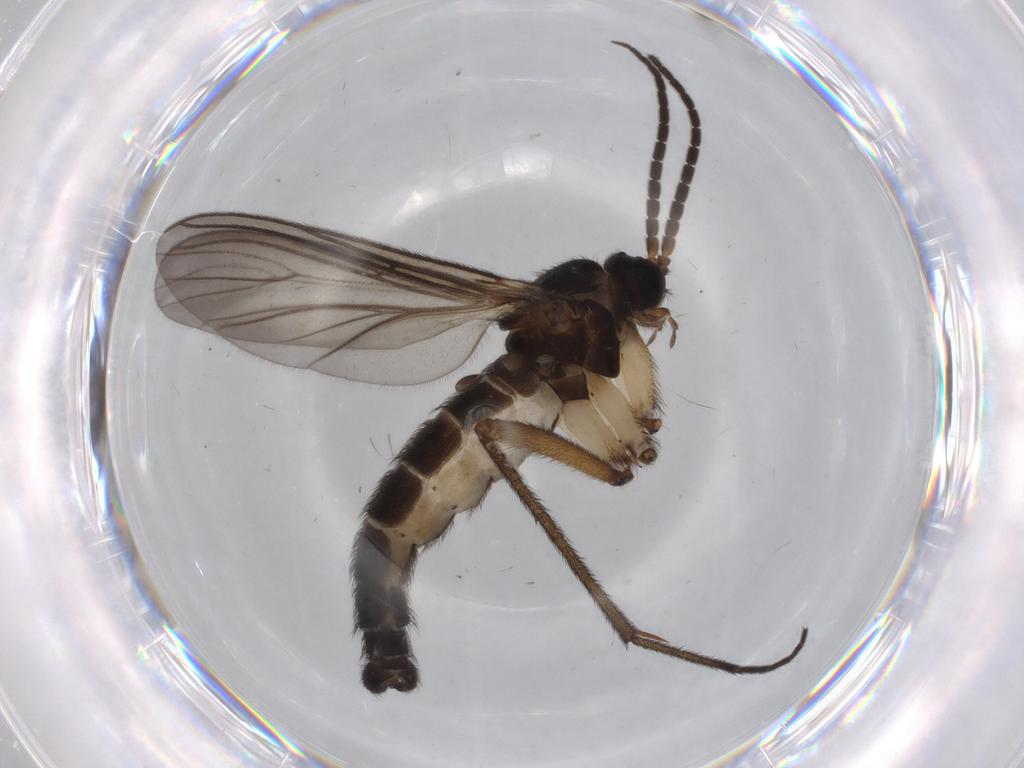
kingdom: Animalia
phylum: Arthropoda
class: Insecta
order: Diptera
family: Sciaridae
